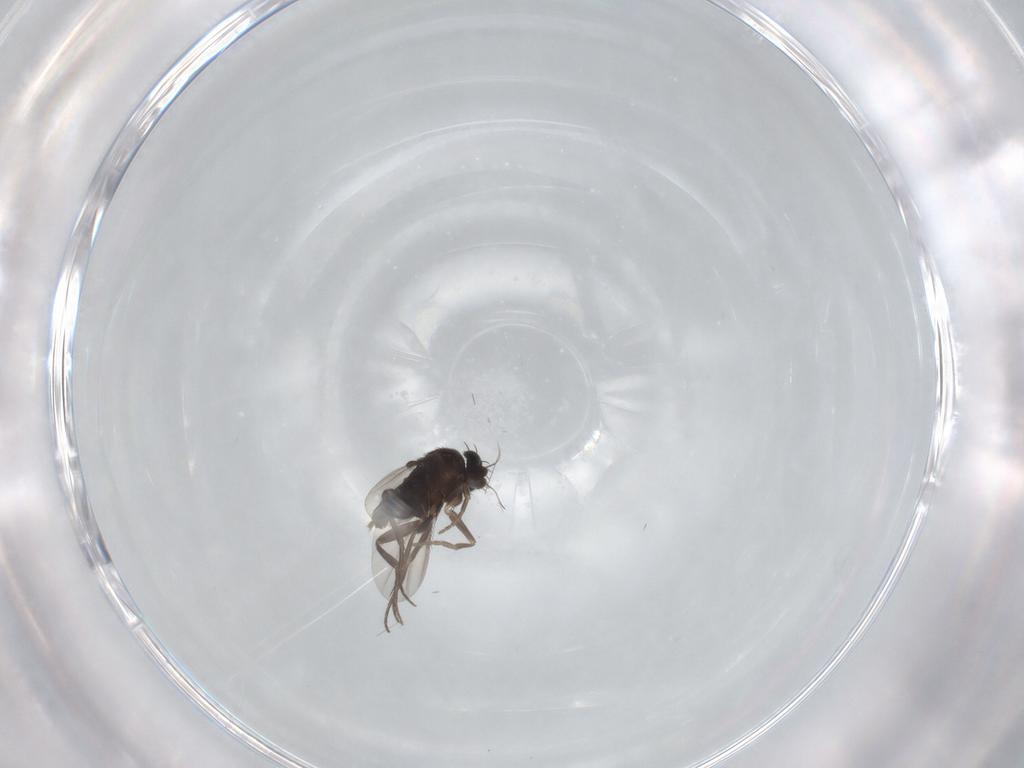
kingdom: Animalia
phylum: Arthropoda
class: Insecta
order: Diptera
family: Phoridae
